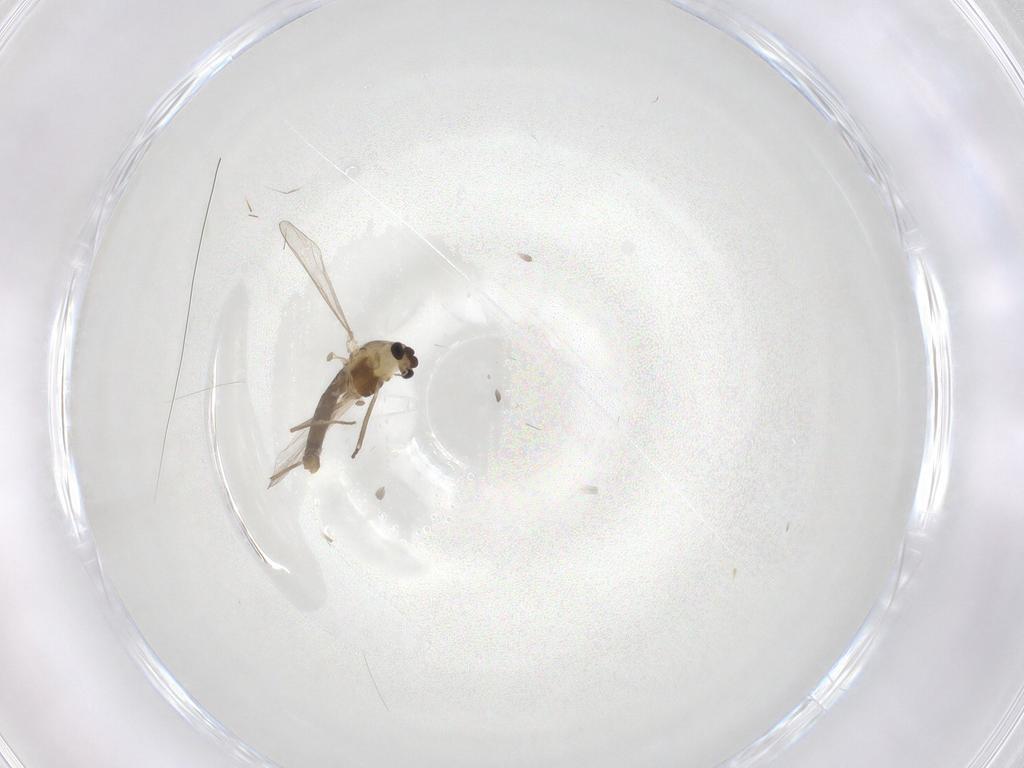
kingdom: Animalia
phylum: Arthropoda
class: Insecta
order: Diptera
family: Chironomidae
